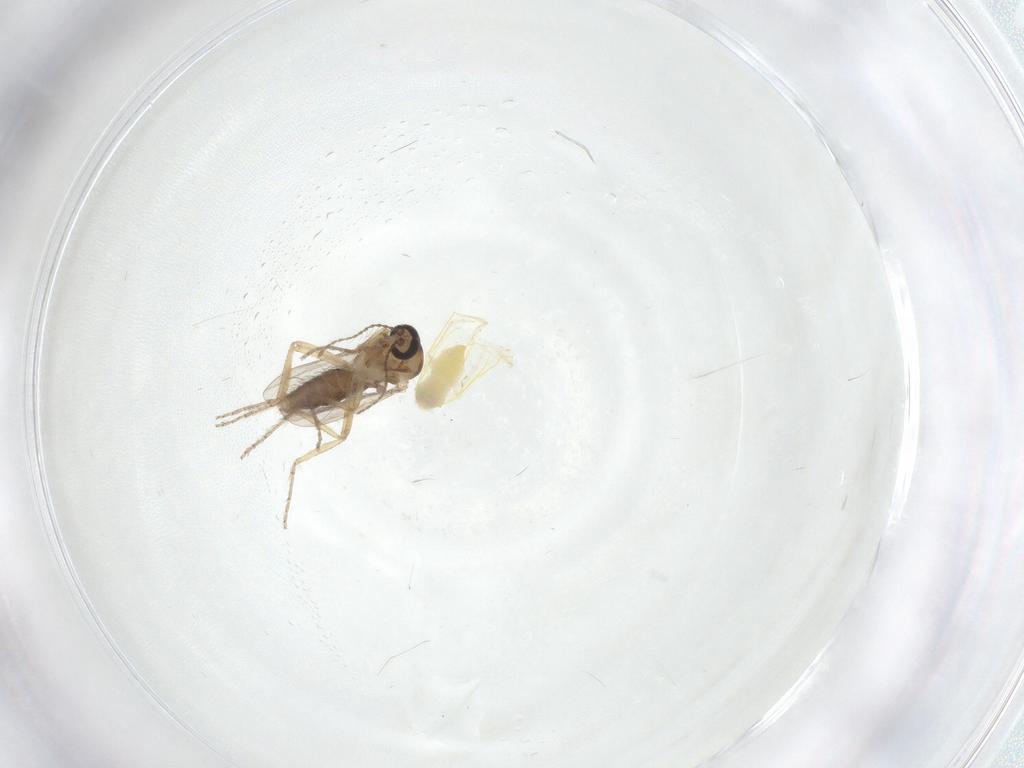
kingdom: Animalia
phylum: Arthropoda
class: Insecta
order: Diptera
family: Ceratopogonidae
